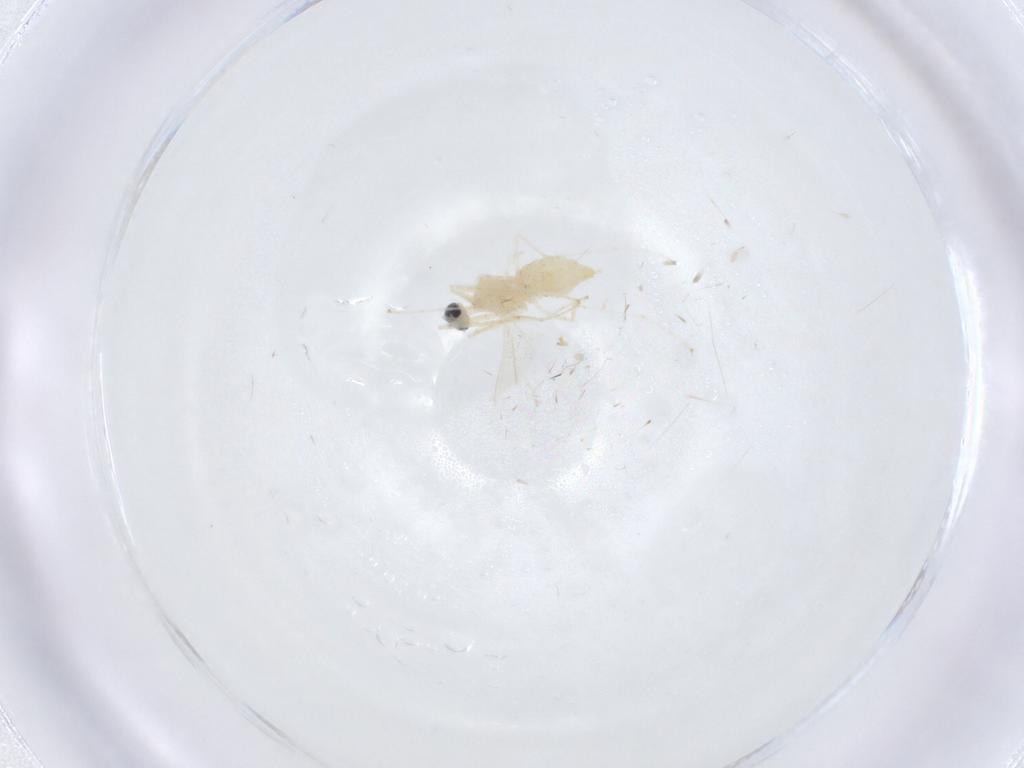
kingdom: Animalia
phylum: Arthropoda
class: Insecta
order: Diptera
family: Cecidomyiidae
